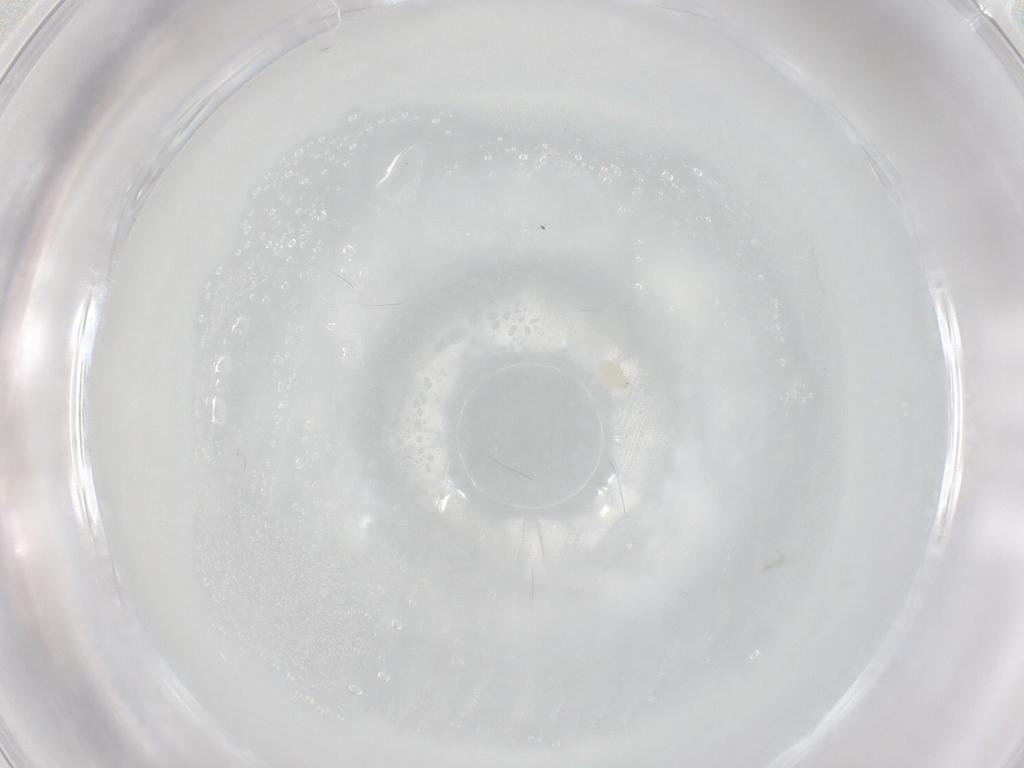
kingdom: Animalia
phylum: Arthropoda
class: Arachnida
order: Trombidiformes
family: Eupodidae
